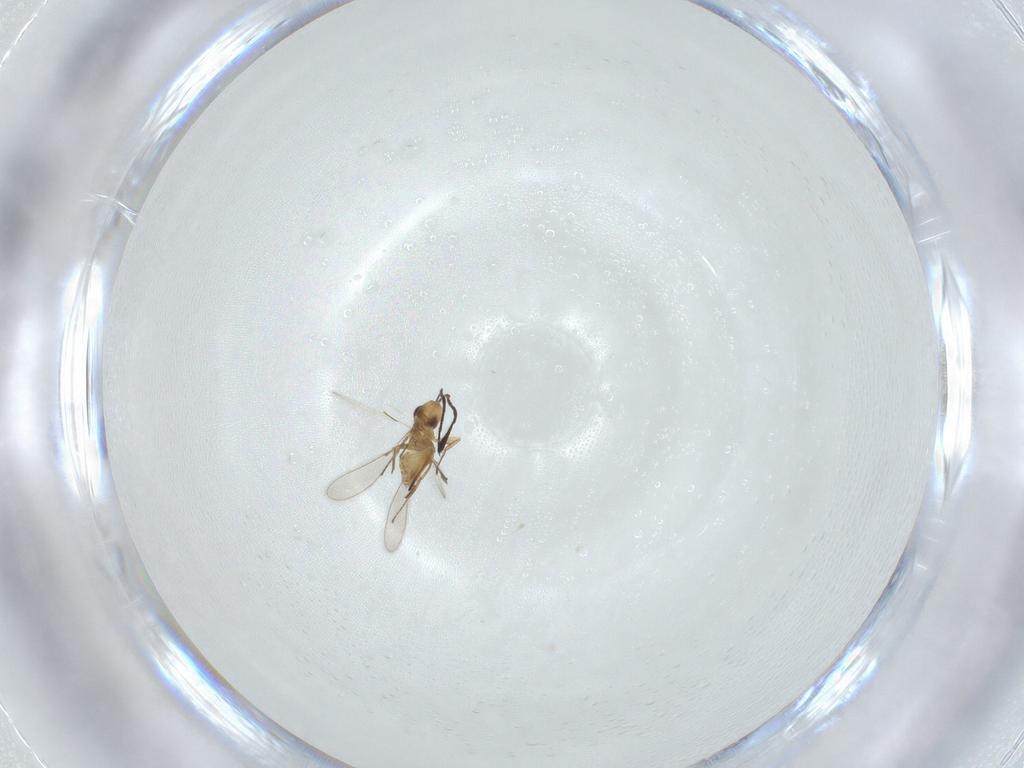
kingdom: Animalia
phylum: Arthropoda
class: Insecta
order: Hymenoptera
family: Mymaridae
